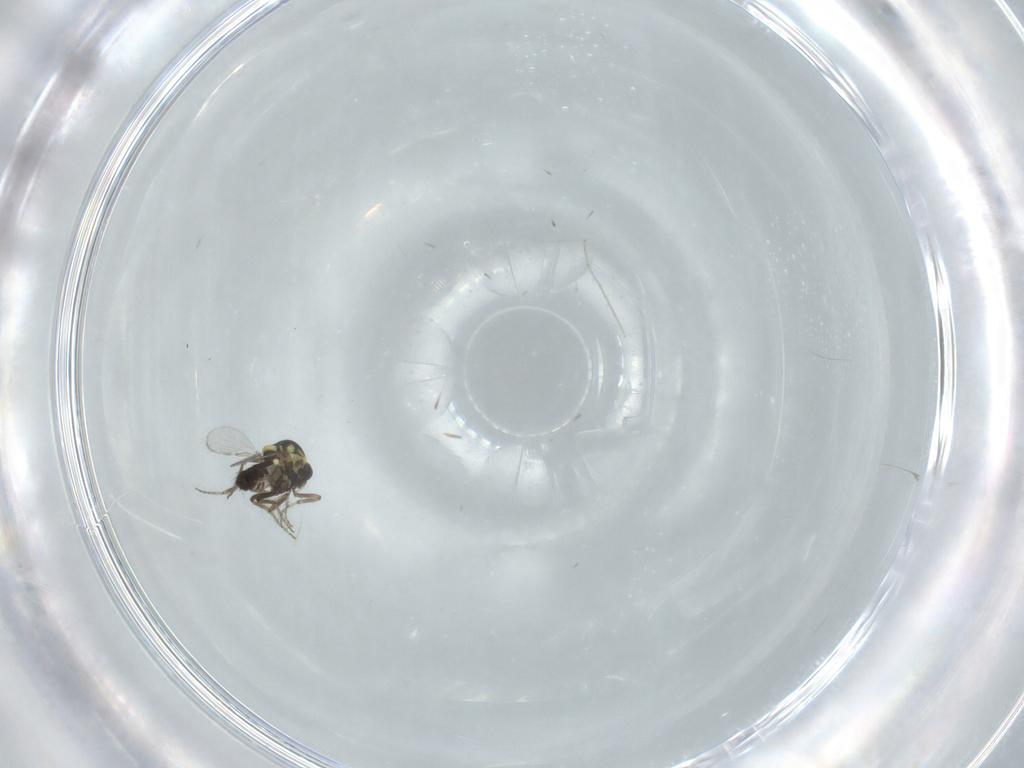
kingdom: Animalia
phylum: Arthropoda
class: Insecta
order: Diptera
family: Ceratopogonidae
